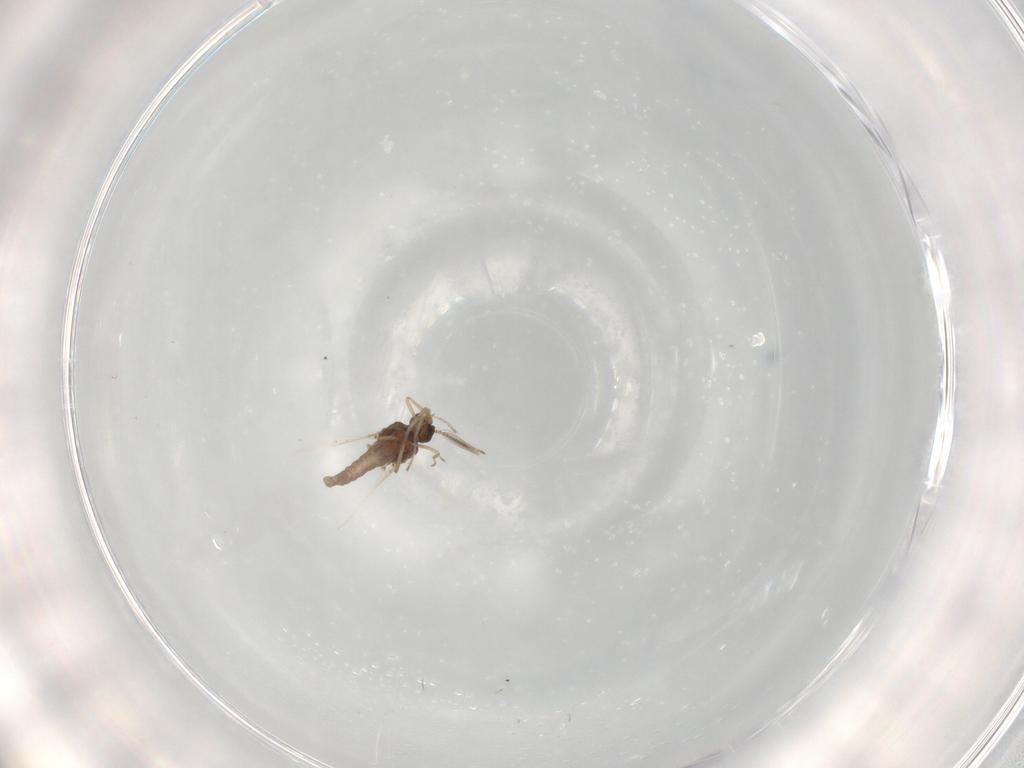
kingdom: Animalia
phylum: Arthropoda
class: Insecta
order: Diptera
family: Ceratopogonidae
